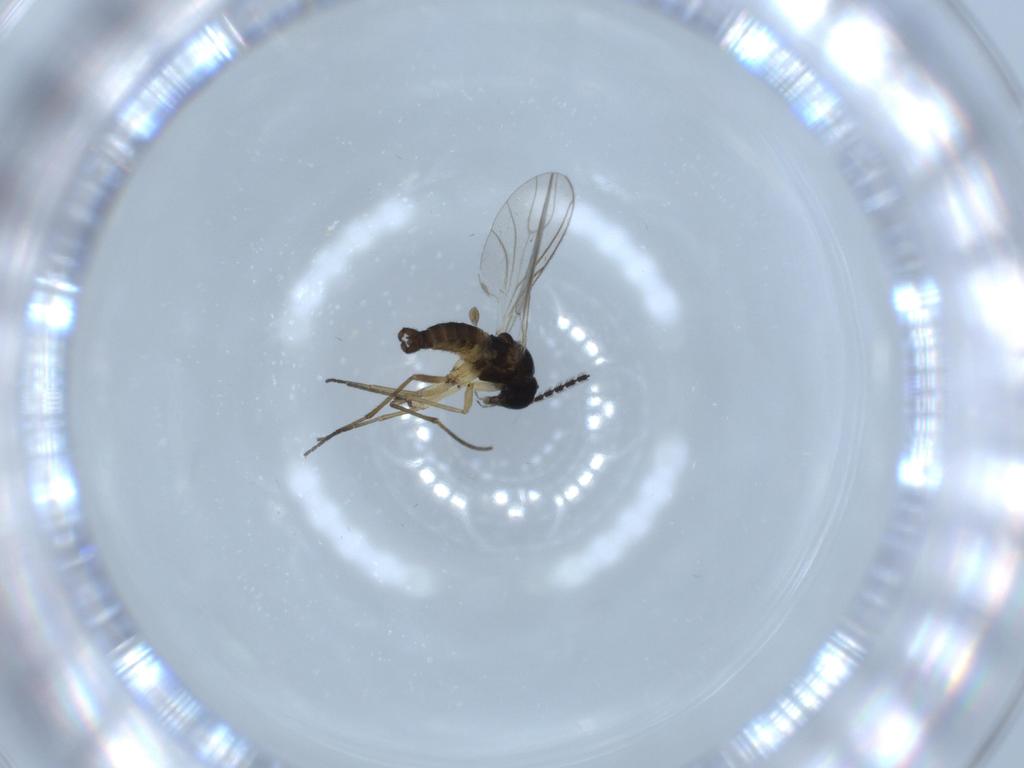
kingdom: Animalia
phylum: Arthropoda
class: Insecta
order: Diptera
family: Sciaridae
